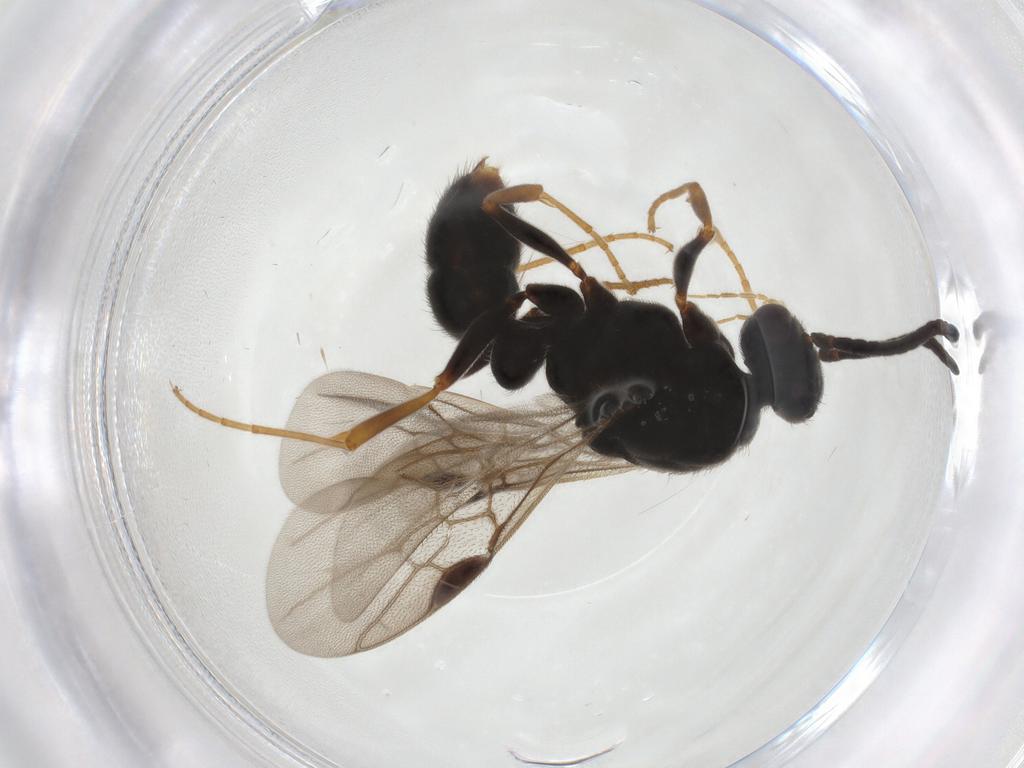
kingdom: Animalia
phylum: Arthropoda
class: Insecta
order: Hymenoptera
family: Formicidae
